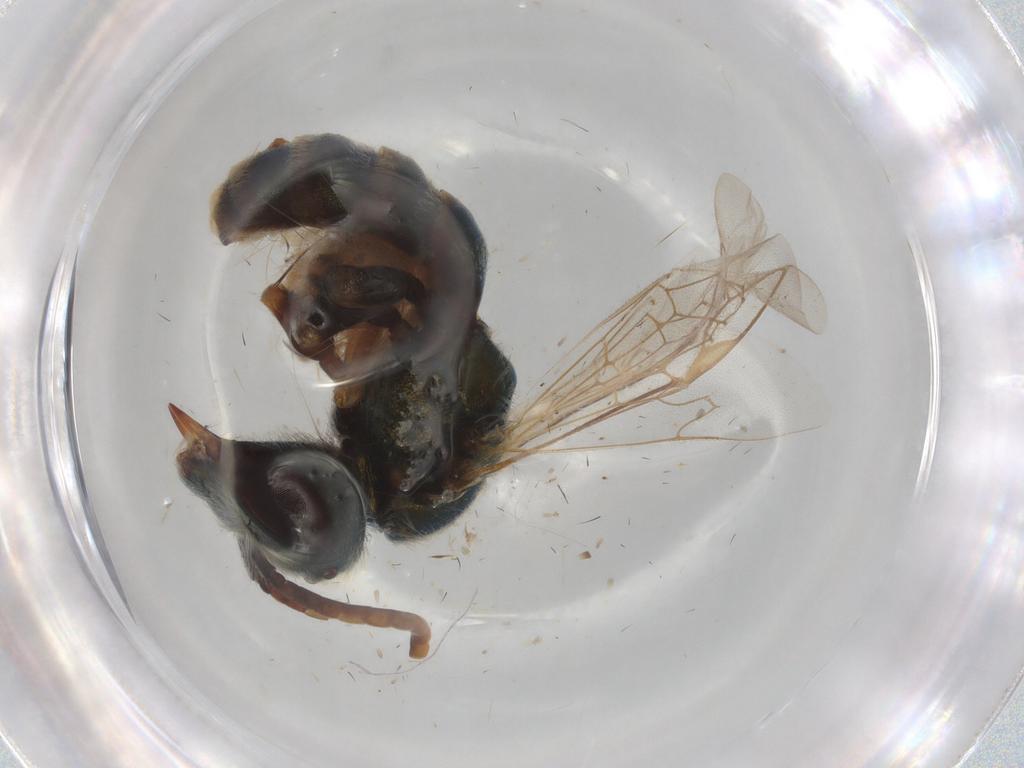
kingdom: Animalia
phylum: Arthropoda
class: Insecta
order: Hymenoptera
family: Halictidae
